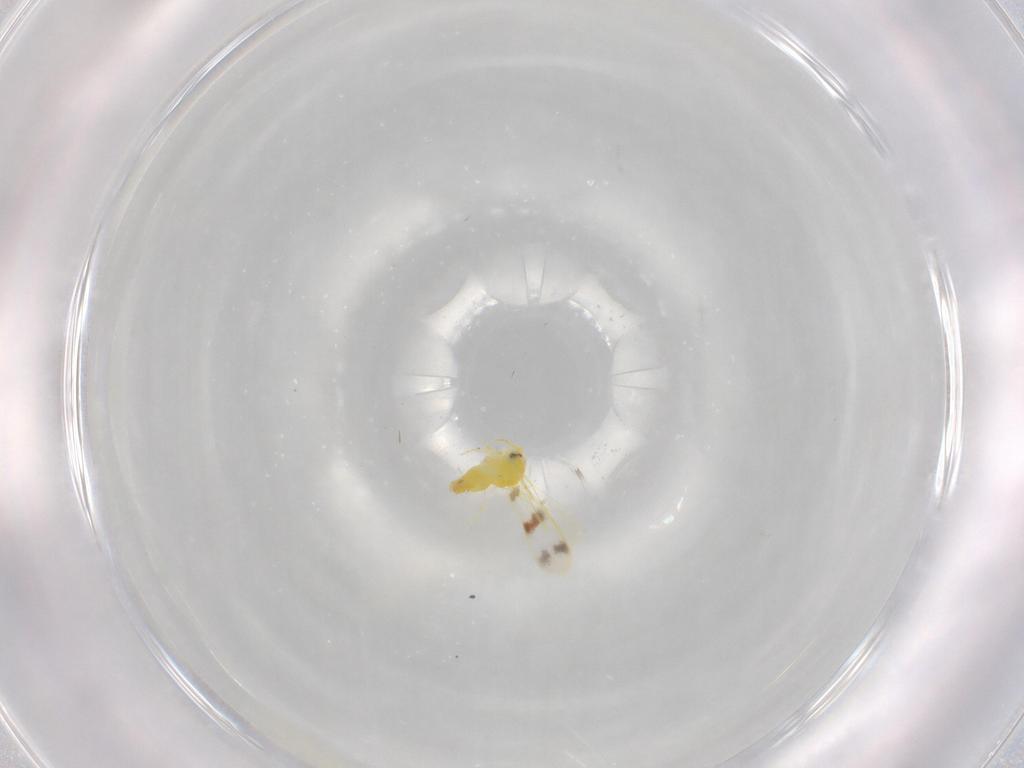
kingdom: Animalia
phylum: Arthropoda
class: Insecta
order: Hemiptera
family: Aleyrodidae
